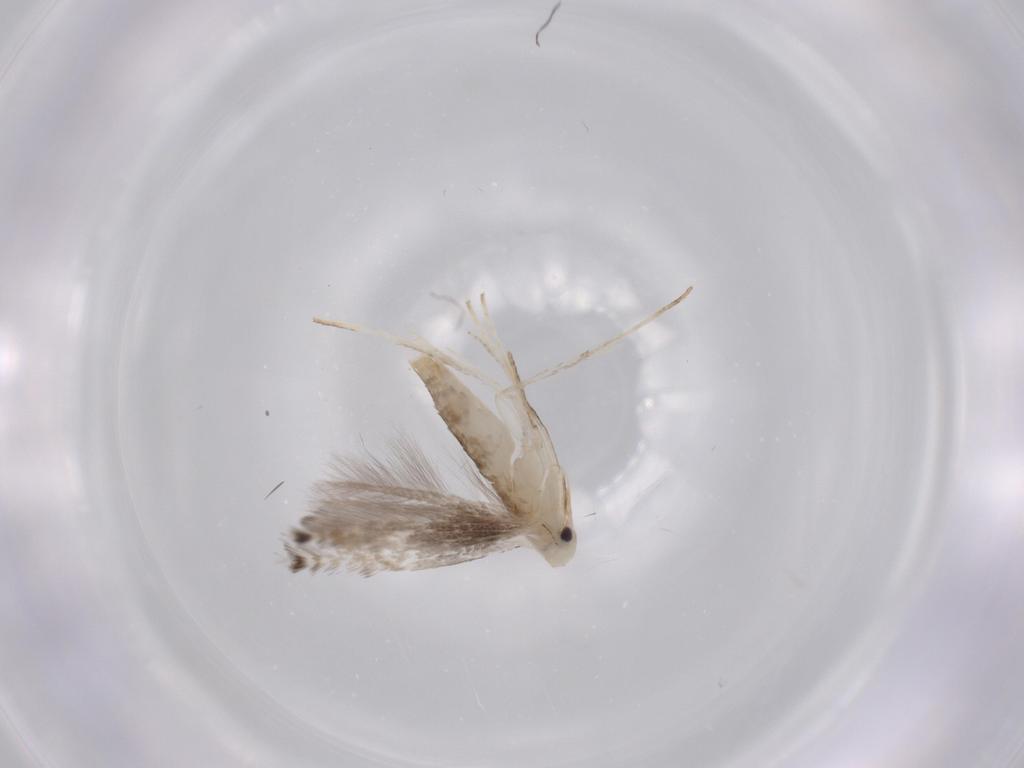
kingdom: Animalia
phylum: Arthropoda
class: Insecta
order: Lepidoptera
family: Gracillariidae
